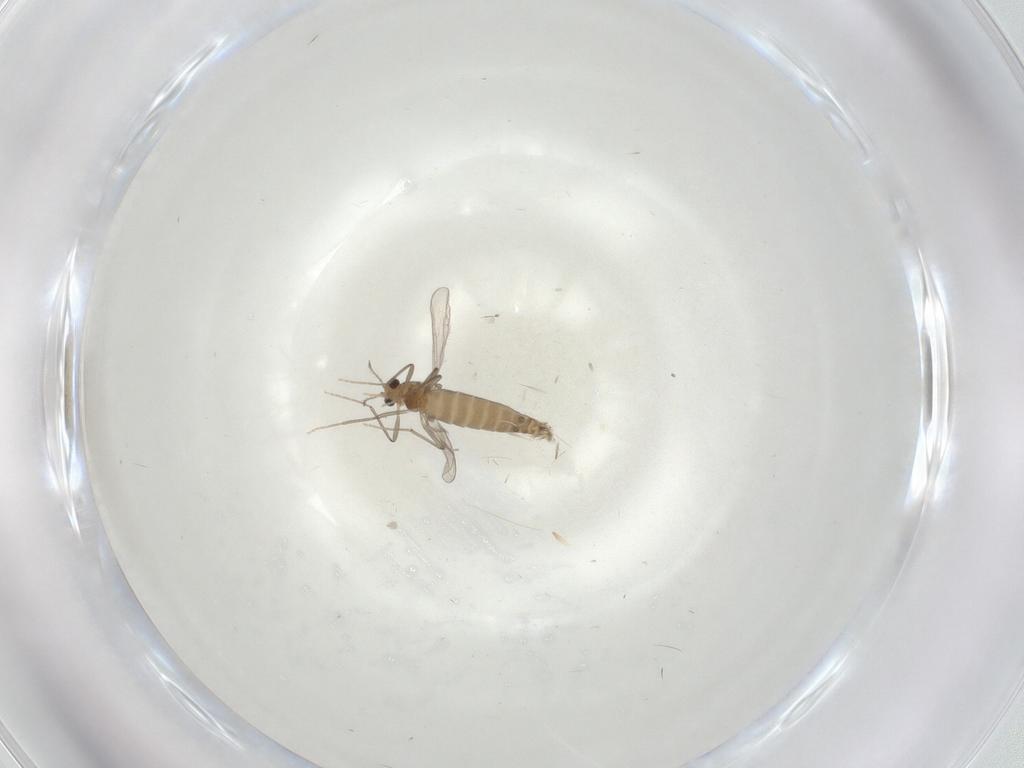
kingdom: Animalia
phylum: Arthropoda
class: Insecta
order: Diptera
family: Chironomidae
